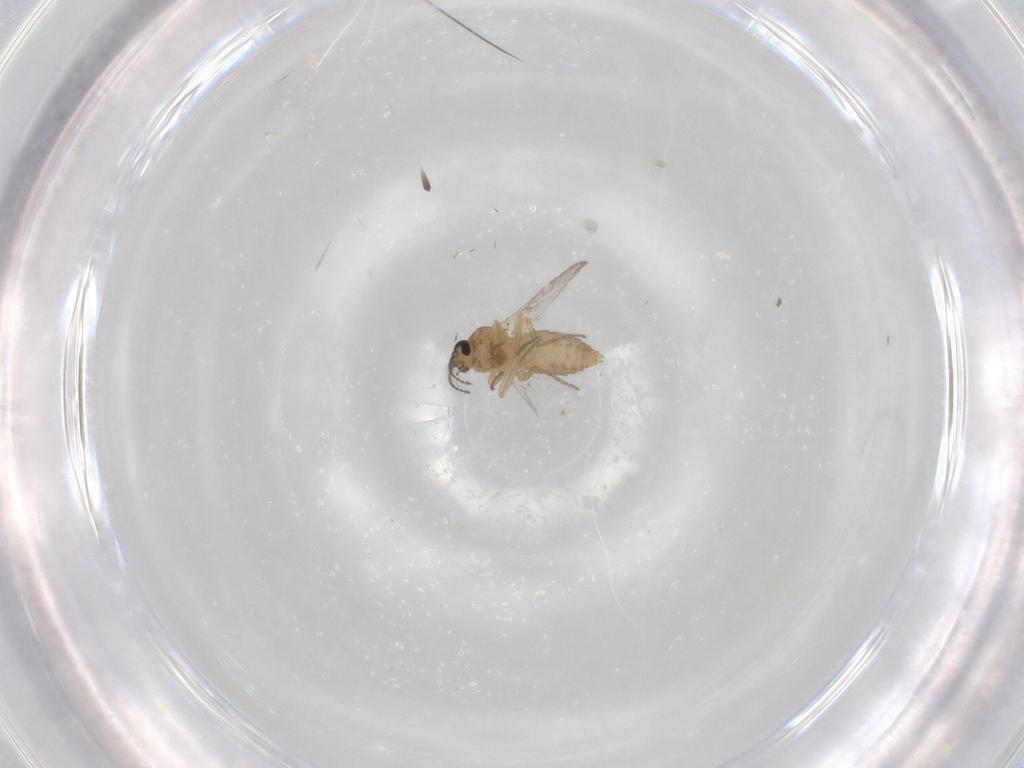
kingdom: Animalia
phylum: Arthropoda
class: Insecta
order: Diptera
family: Ceratopogonidae
